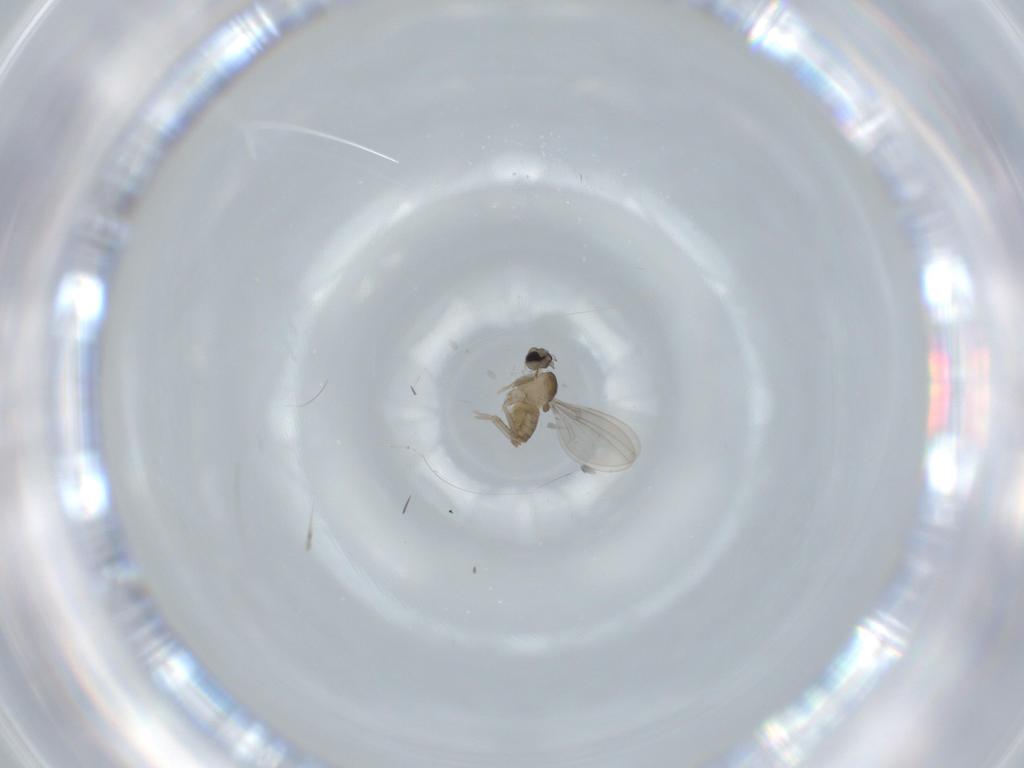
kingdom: Animalia
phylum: Arthropoda
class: Insecta
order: Diptera
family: Cecidomyiidae
